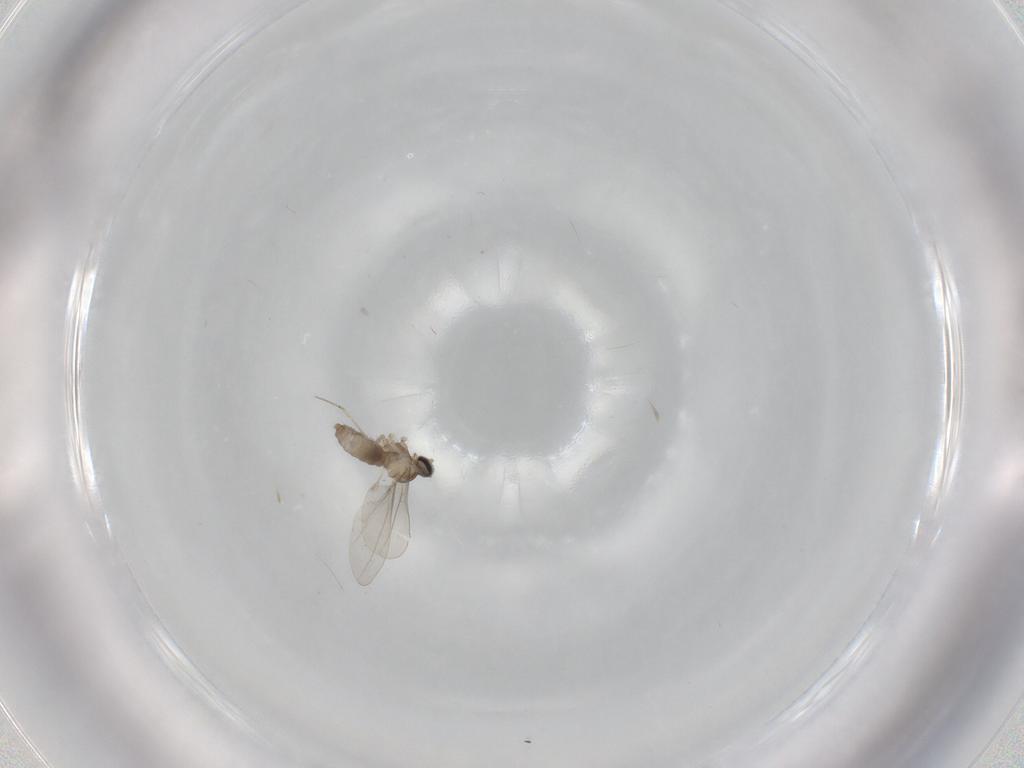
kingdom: Animalia
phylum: Arthropoda
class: Insecta
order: Diptera
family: Cecidomyiidae
